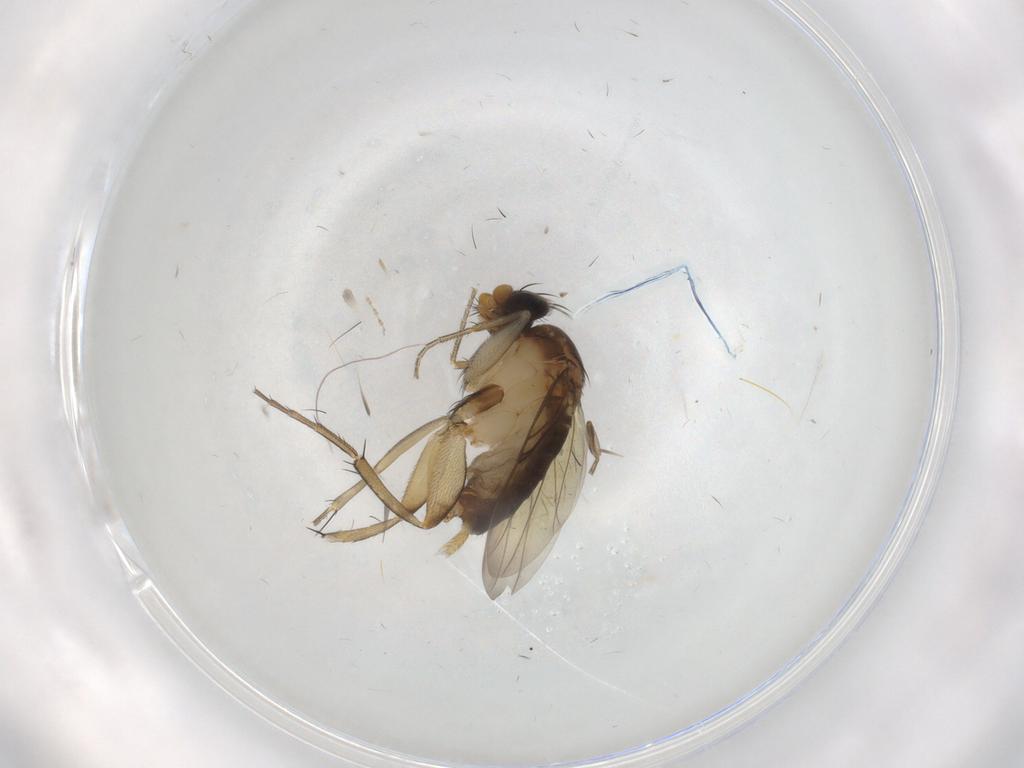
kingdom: Animalia
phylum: Arthropoda
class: Insecta
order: Diptera
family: Phoridae
